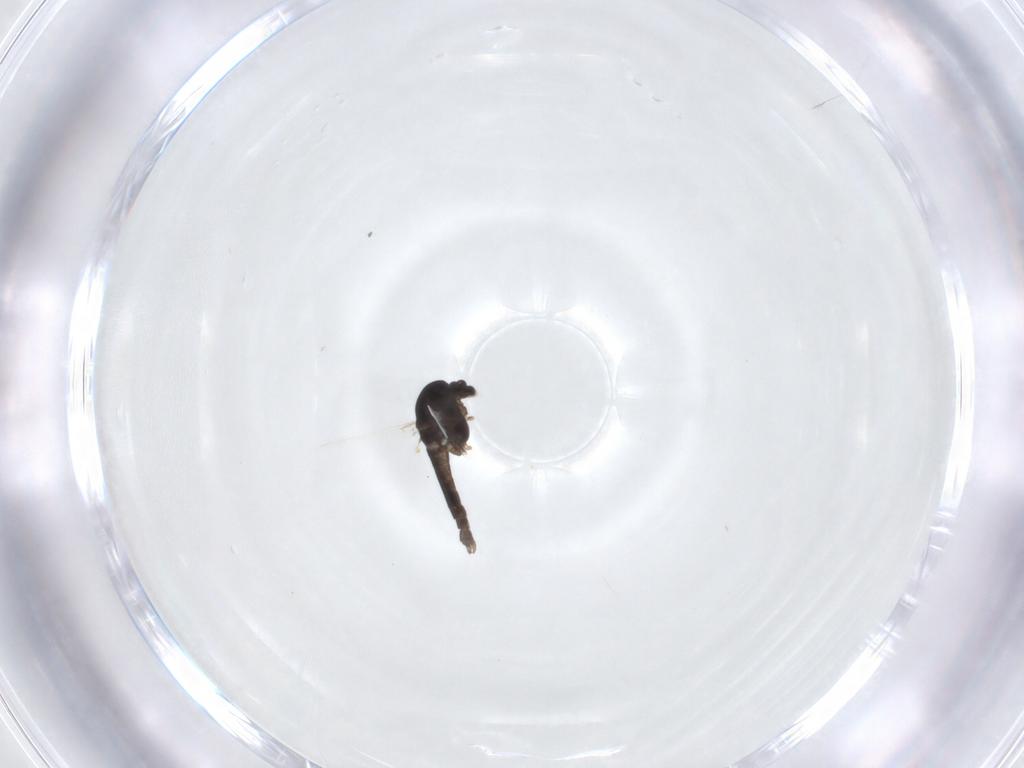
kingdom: Animalia
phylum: Arthropoda
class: Insecta
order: Diptera
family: Chironomidae
